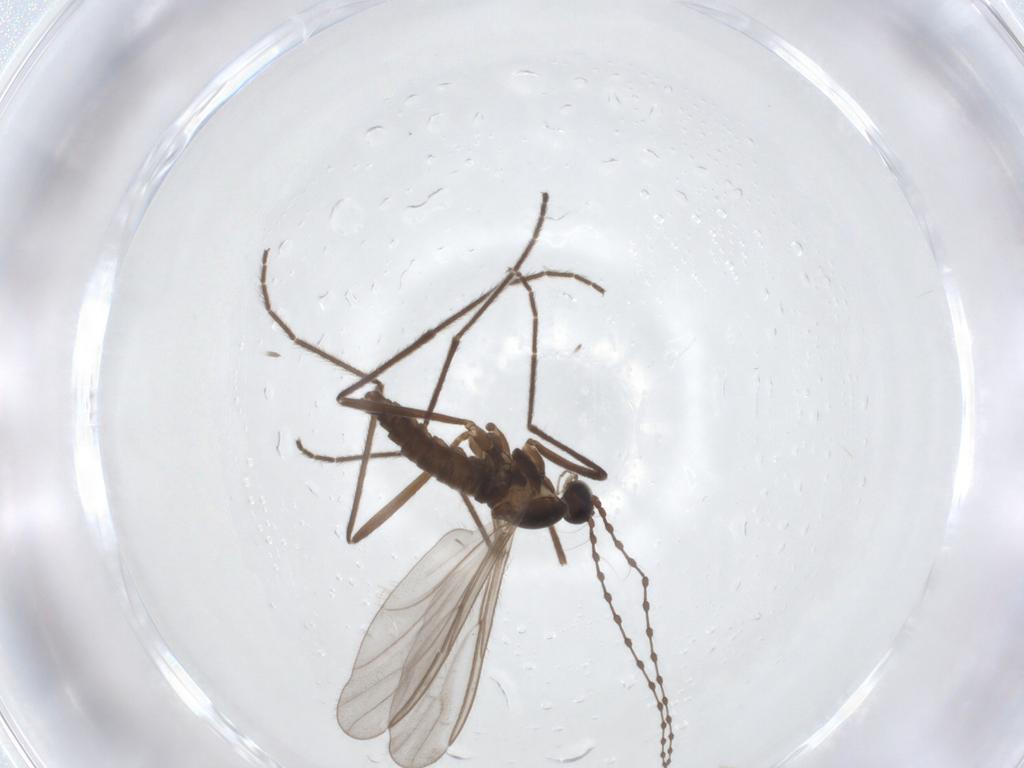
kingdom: Animalia
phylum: Arthropoda
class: Insecta
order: Diptera
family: Tachinidae
